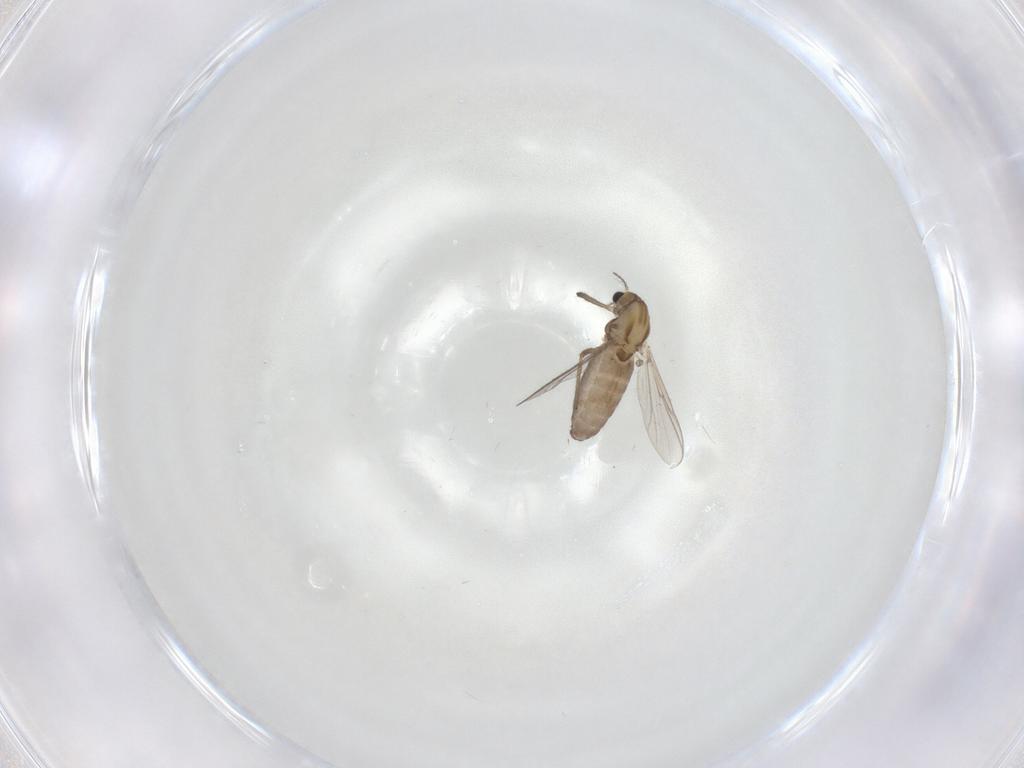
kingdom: Animalia
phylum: Arthropoda
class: Insecta
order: Diptera
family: Chironomidae
